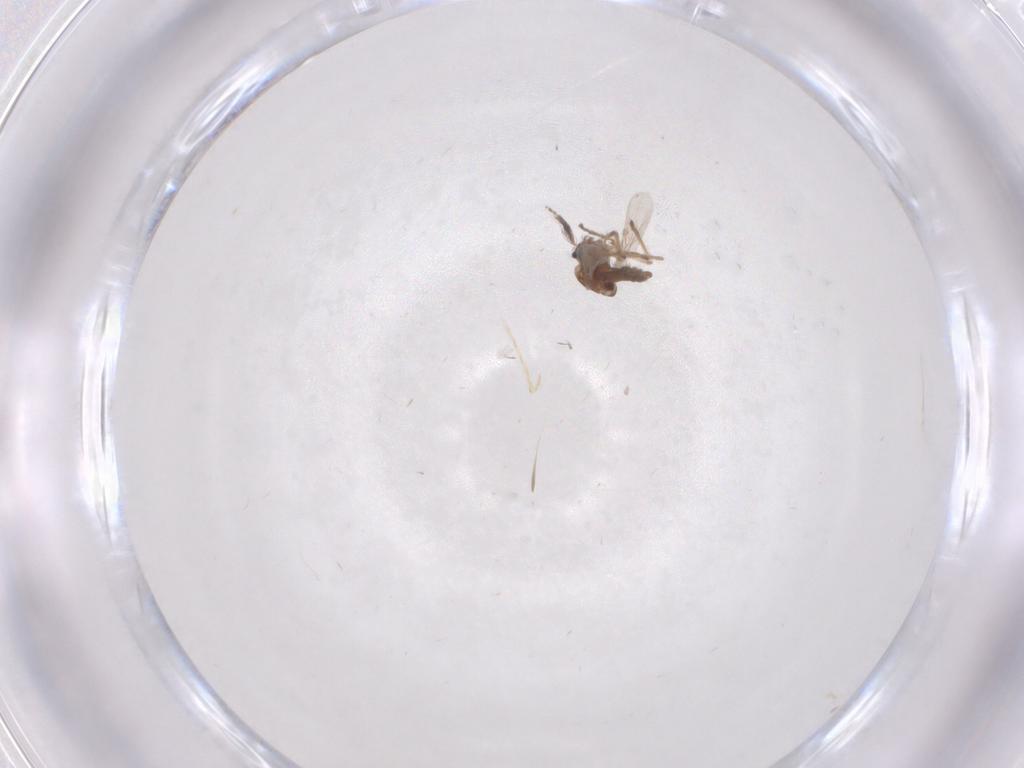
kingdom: Animalia
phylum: Arthropoda
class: Insecta
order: Diptera
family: Ceratopogonidae
